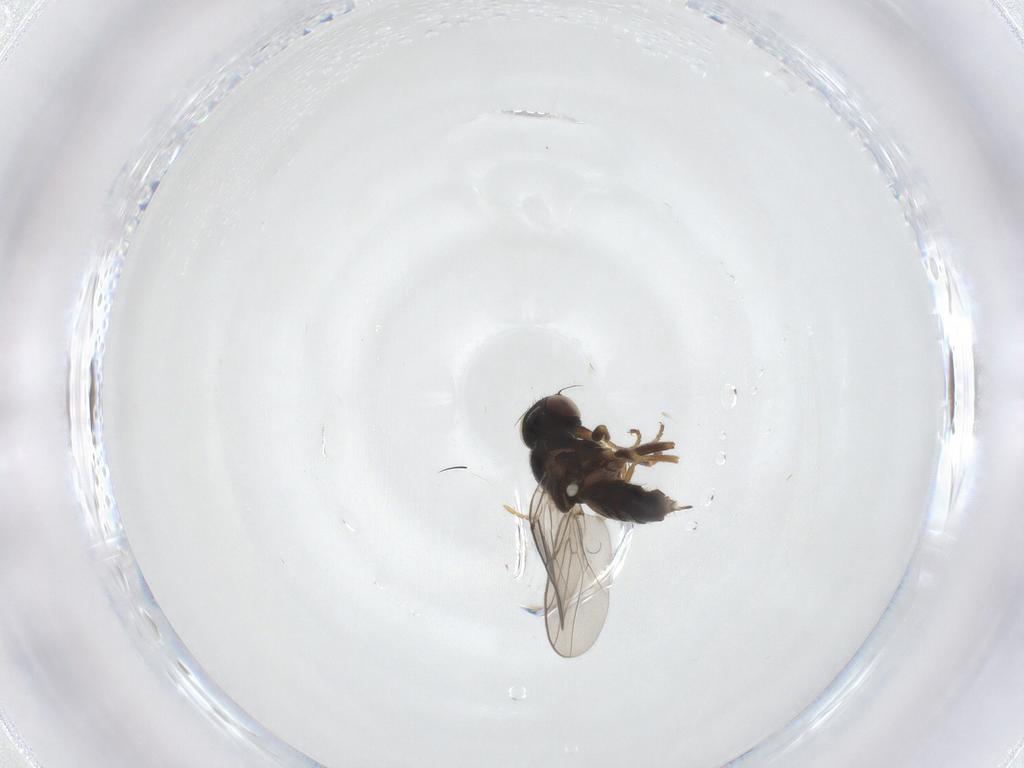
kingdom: Animalia
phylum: Arthropoda
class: Insecta
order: Diptera
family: Chloropidae
